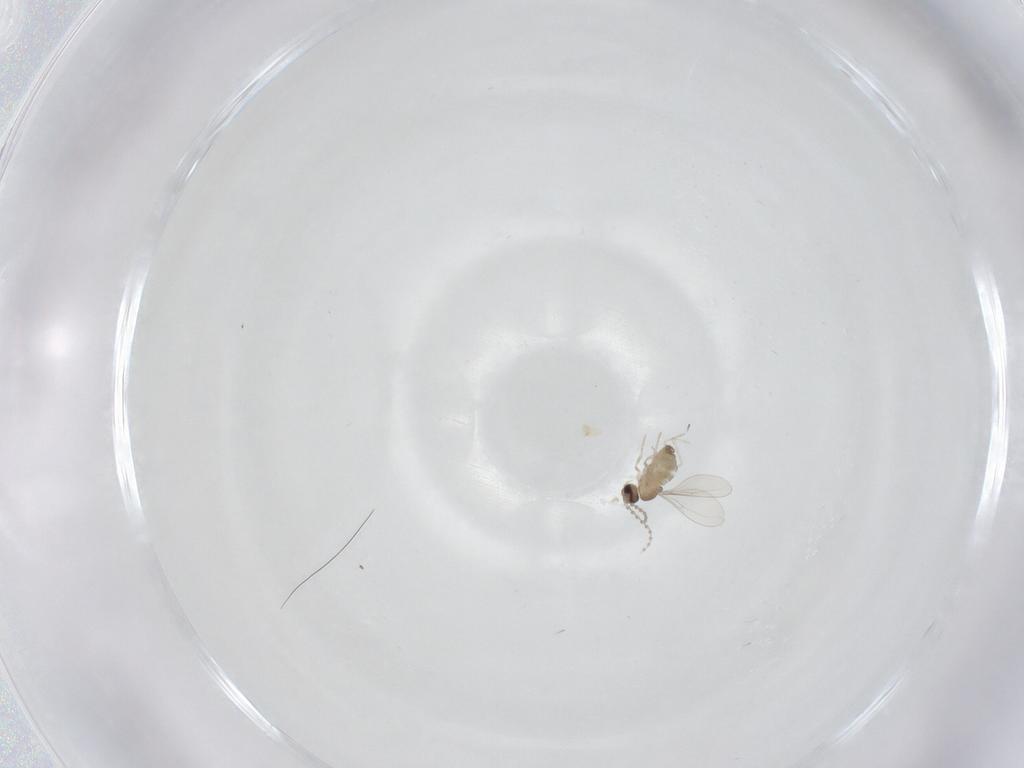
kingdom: Animalia
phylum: Arthropoda
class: Insecta
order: Diptera
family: Cecidomyiidae
